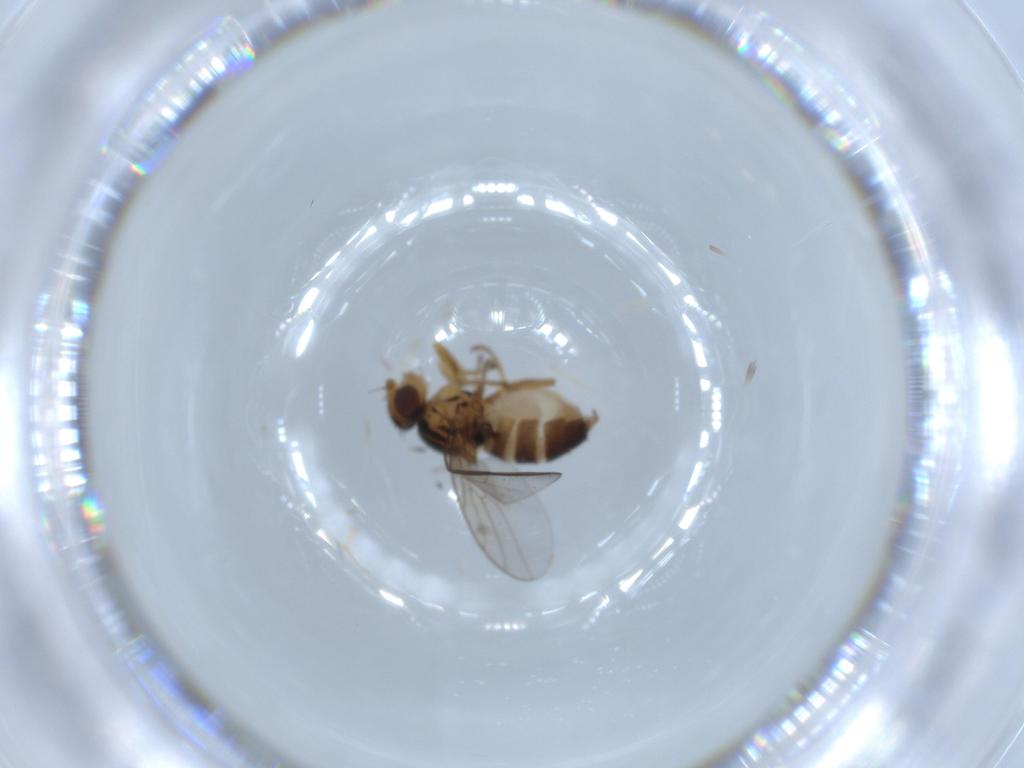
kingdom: Animalia
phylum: Arthropoda
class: Insecta
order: Diptera
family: Chloropidae
